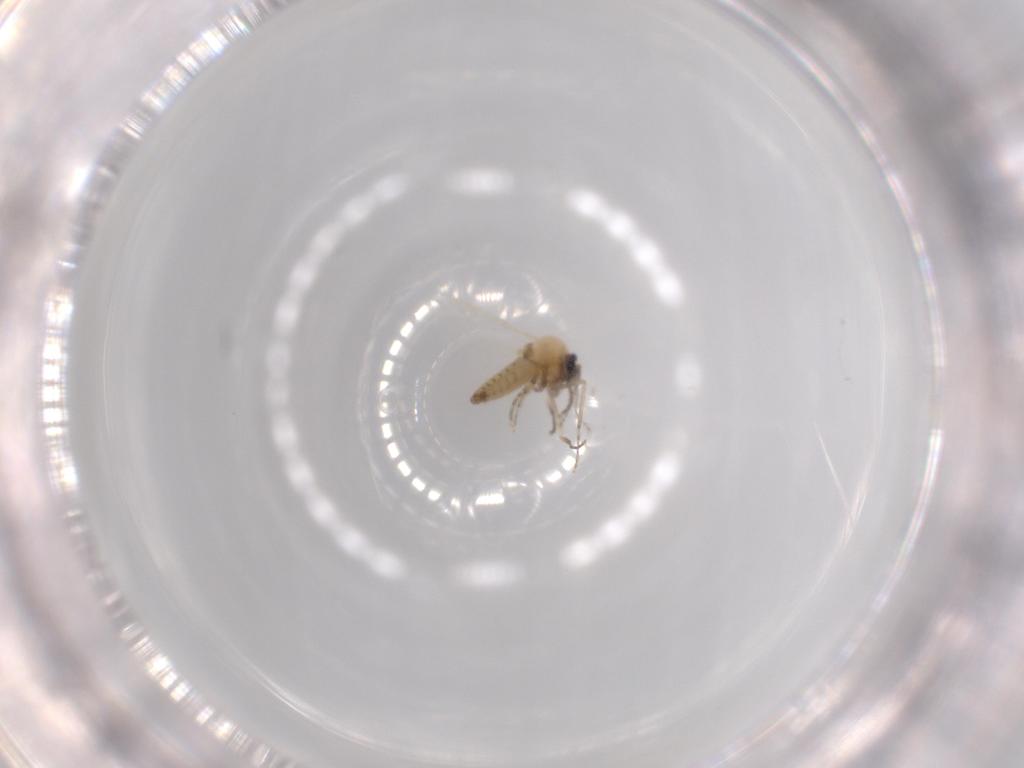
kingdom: Animalia
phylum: Arthropoda
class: Insecta
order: Diptera
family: Ceratopogonidae
